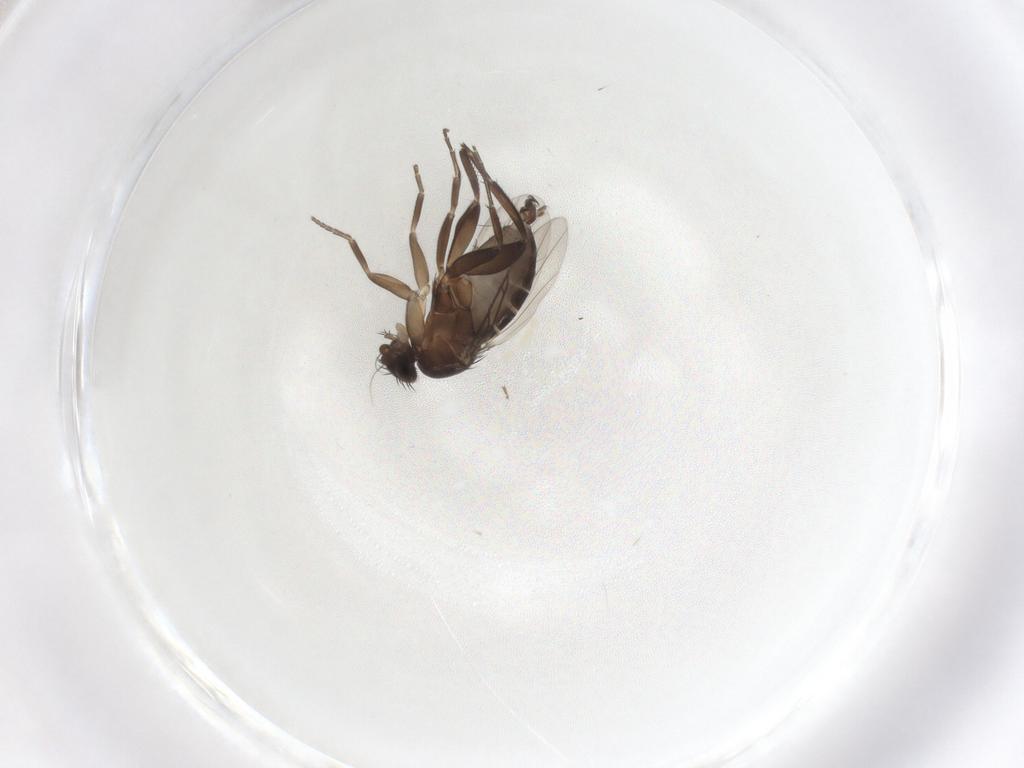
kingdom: Animalia
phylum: Arthropoda
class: Insecta
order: Diptera
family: Phoridae
